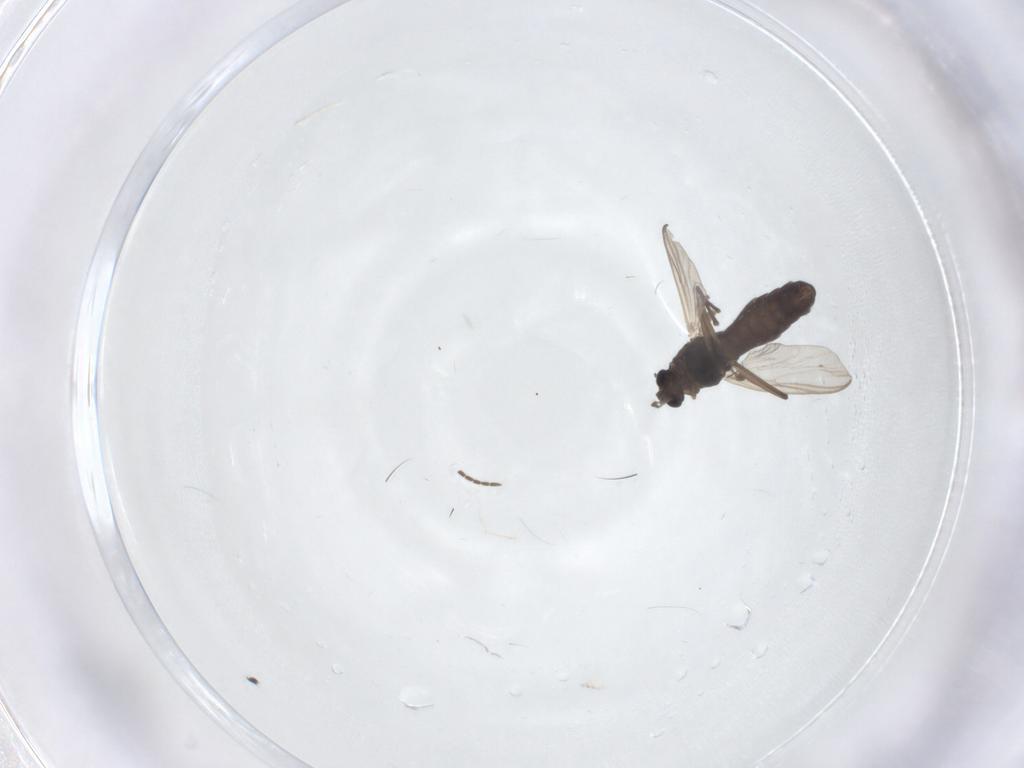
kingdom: Animalia
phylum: Arthropoda
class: Insecta
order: Diptera
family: Chironomidae
